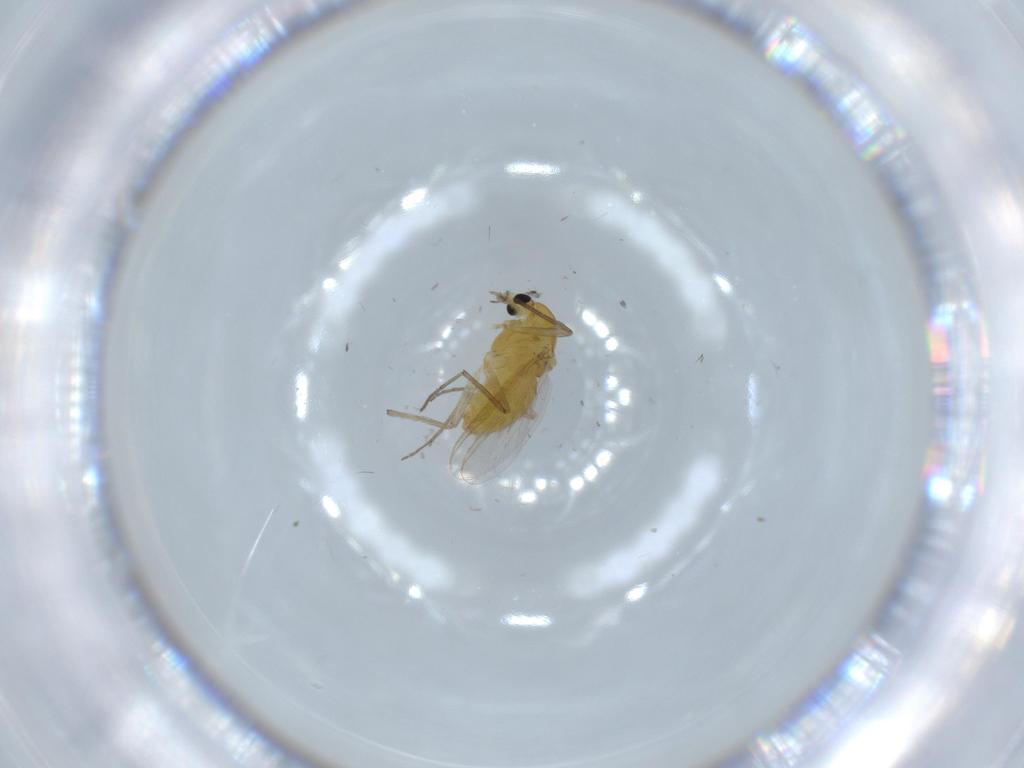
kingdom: Animalia
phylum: Arthropoda
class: Insecta
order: Diptera
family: Chironomidae
